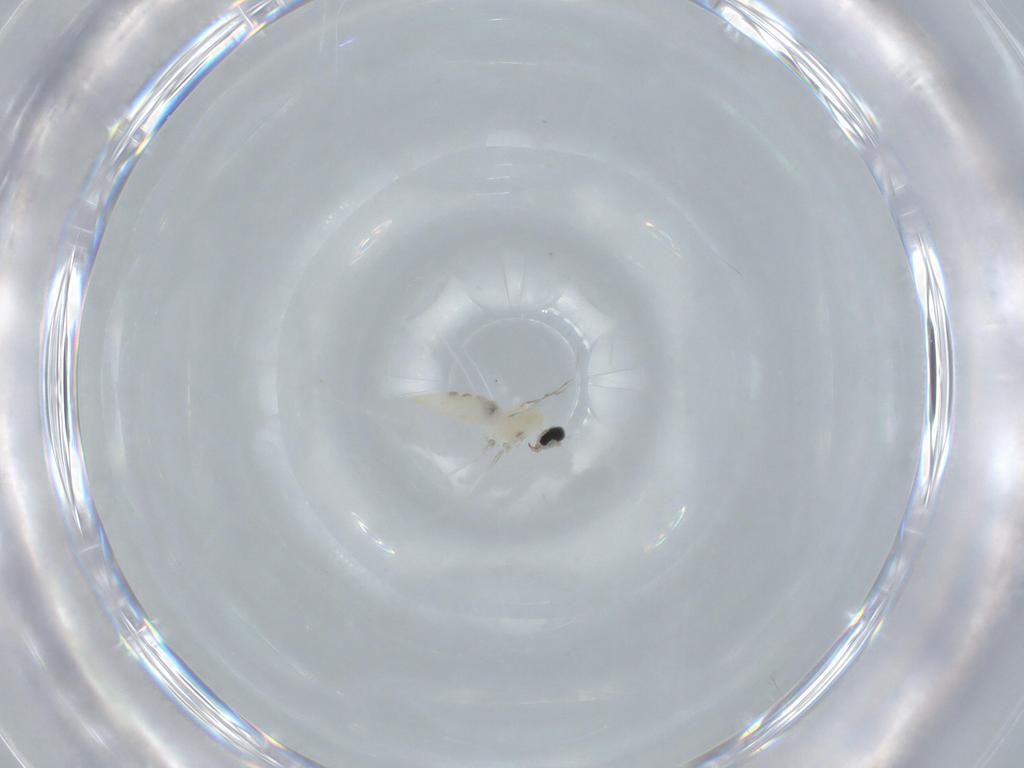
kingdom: Animalia
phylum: Arthropoda
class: Insecta
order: Diptera
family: Cecidomyiidae
